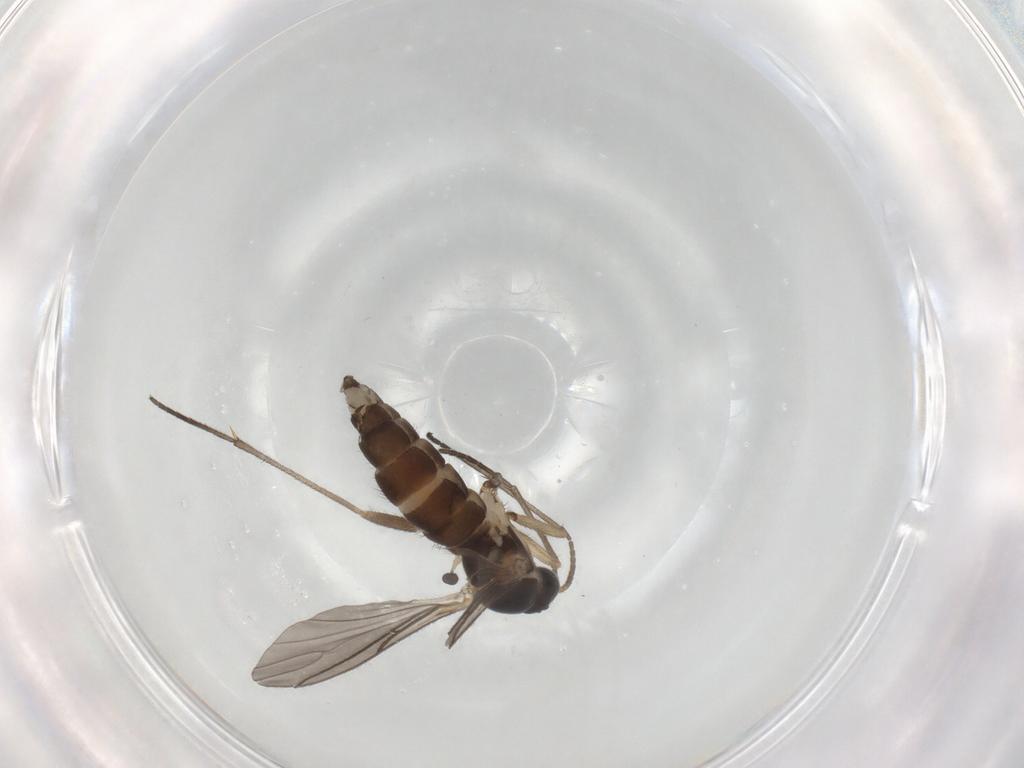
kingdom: Animalia
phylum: Arthropoda
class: Insecta
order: Diptera
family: Sciaridae
